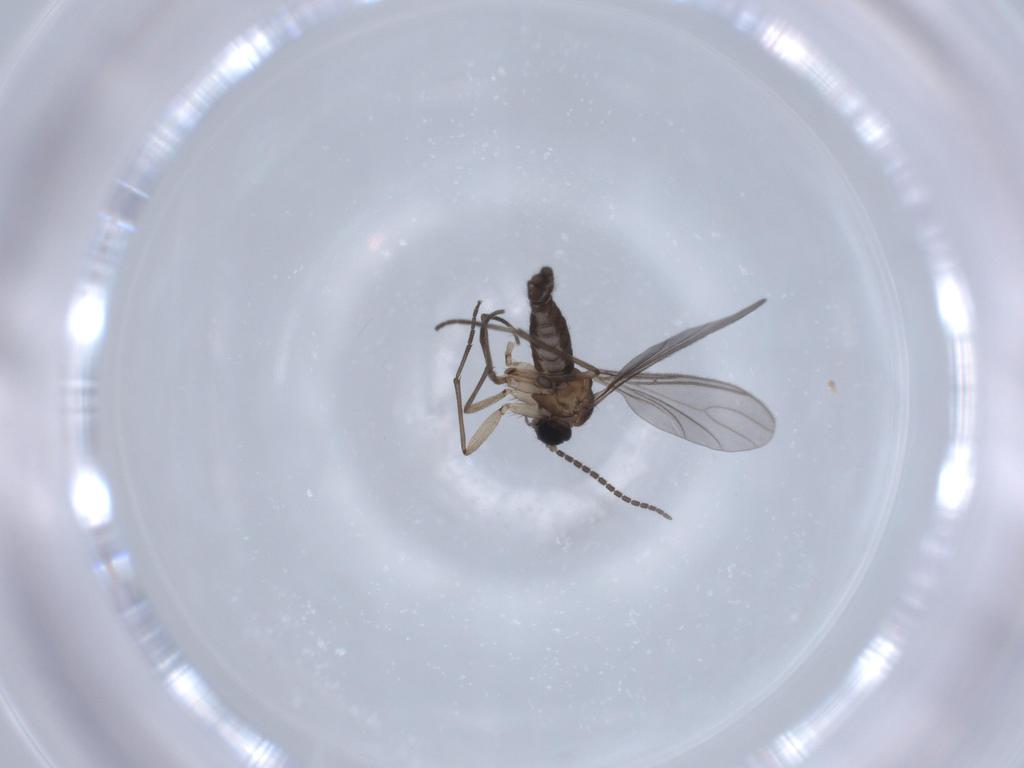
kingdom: Animalia
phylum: Arthropoda
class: Insecta
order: Diptera
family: Sciaridae
